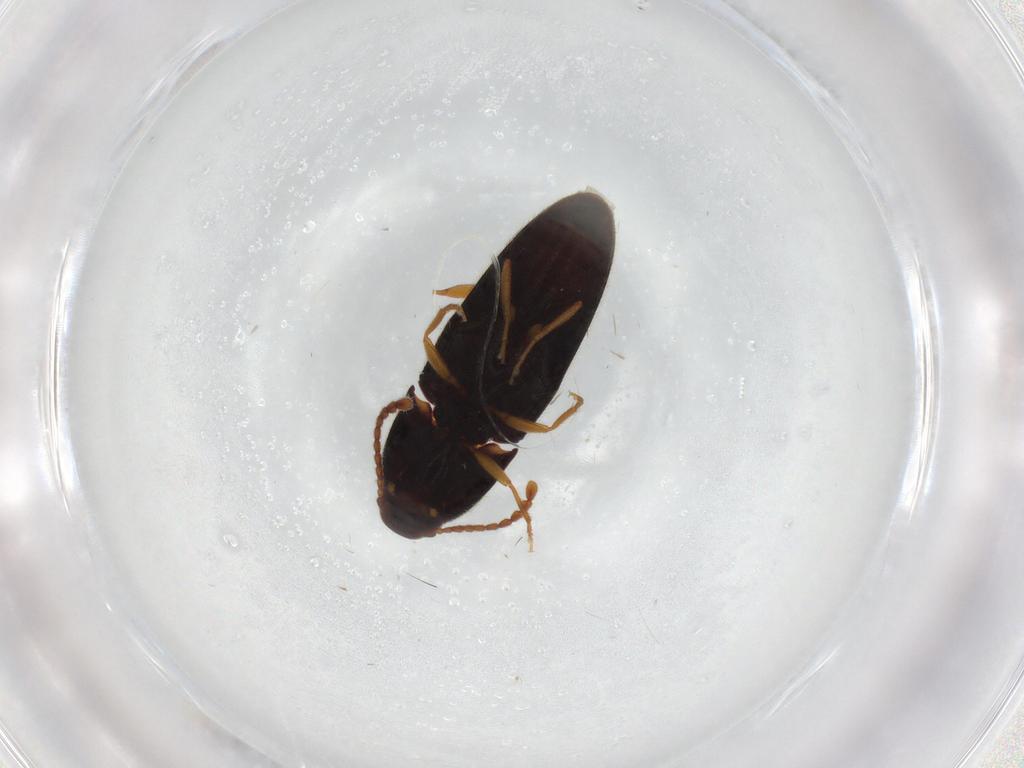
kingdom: Animalia
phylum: Arthropoda
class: Insecta
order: Coleoptera
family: Elateridae
